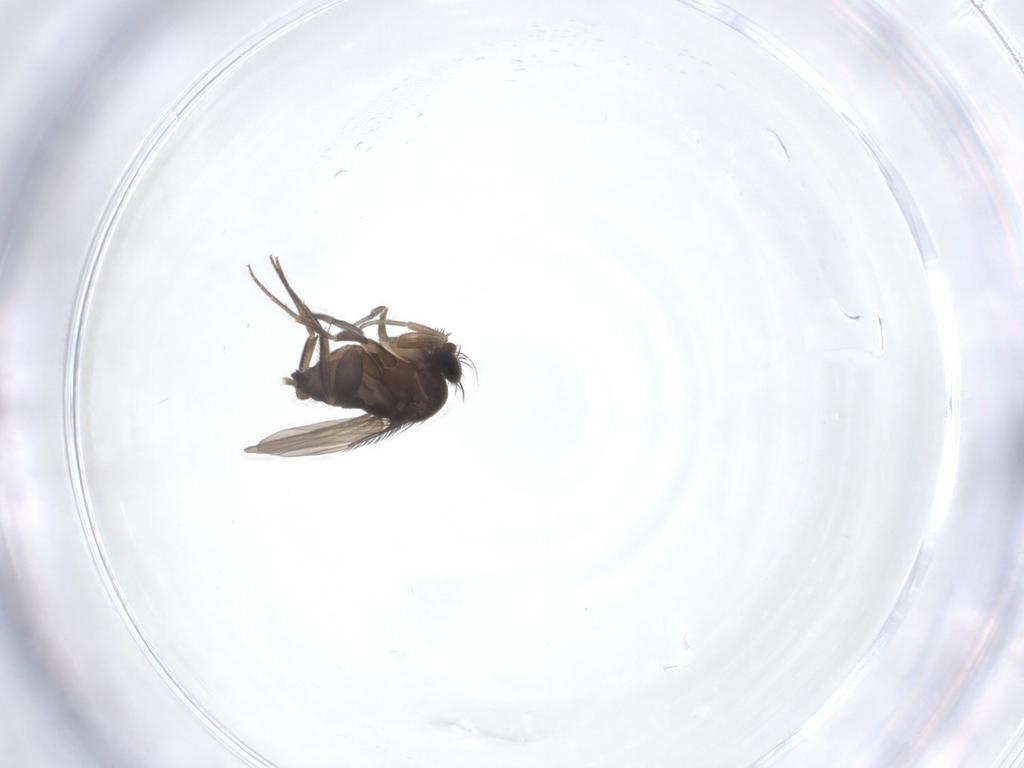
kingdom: Animalia
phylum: Arthropoda
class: Insecta
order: Diptera
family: Phoridae
